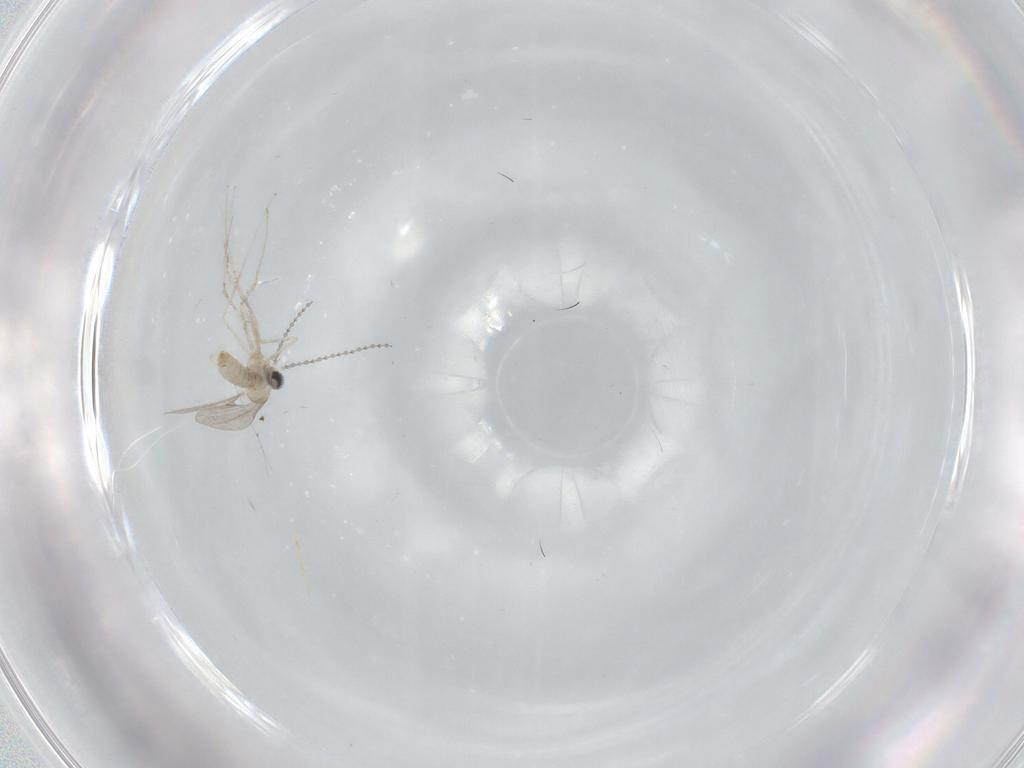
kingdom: Animalia
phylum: Arthropoda
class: Insecta
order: Diptera
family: Cecidomyiidae
